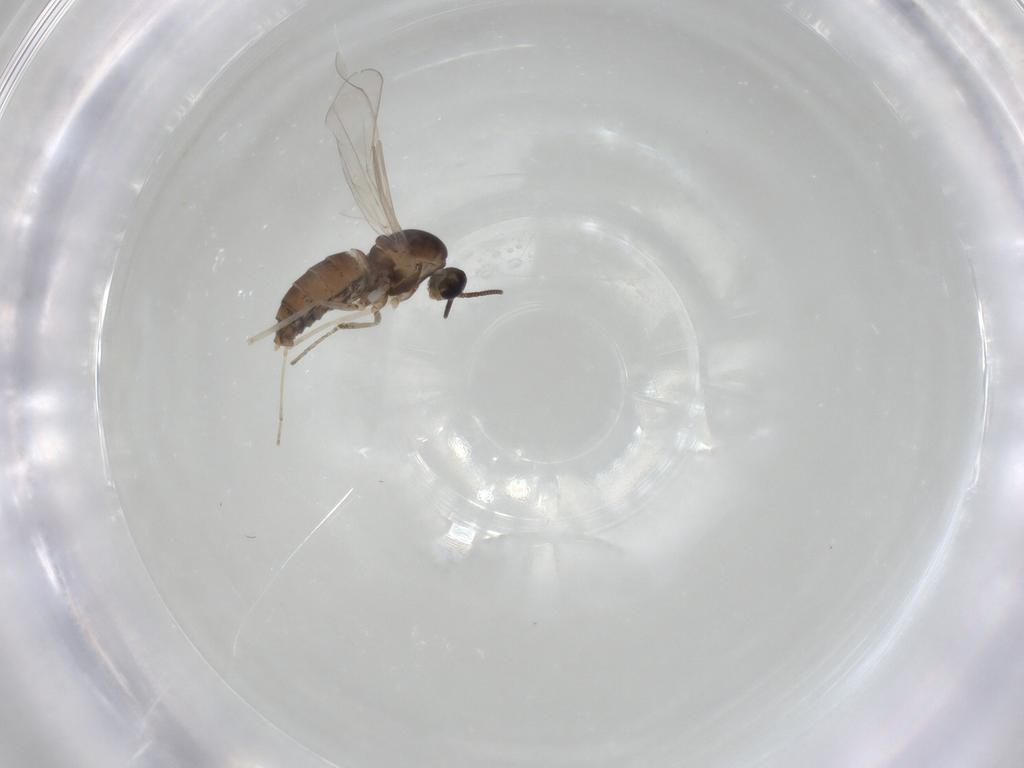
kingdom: Animalia
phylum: Arthropoda
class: Insecta
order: Diptera
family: Cecidomyiidae
